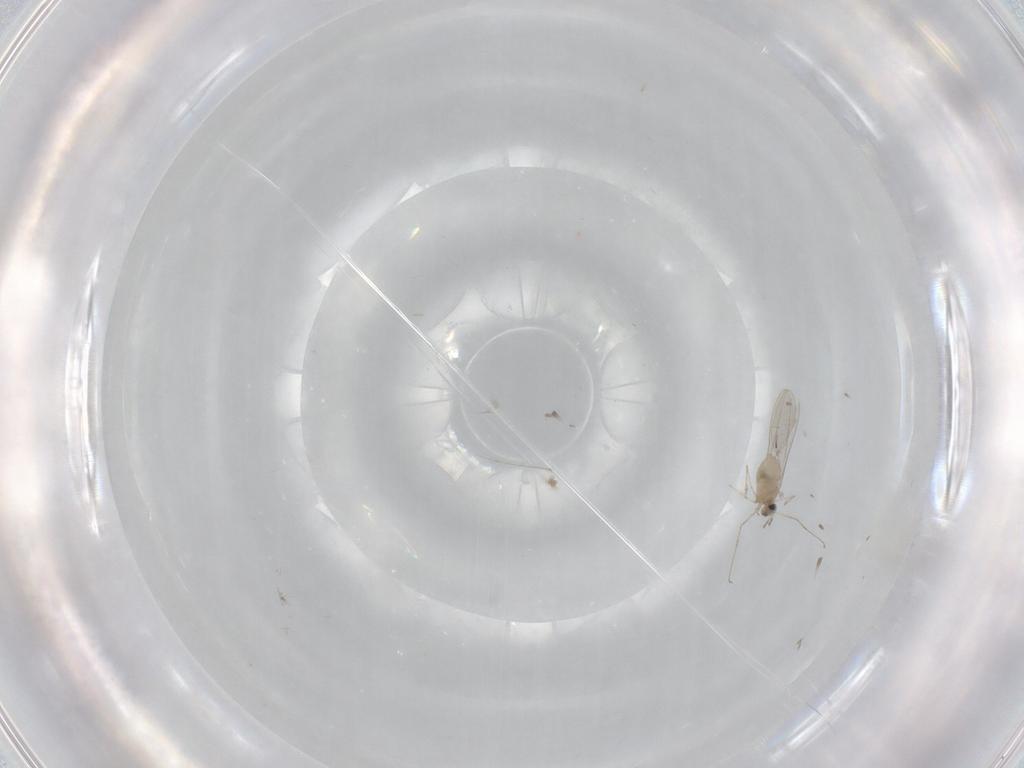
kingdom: Animalia
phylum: Arthropoda
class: Insecta
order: Diptera
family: Cecidomyiidae
